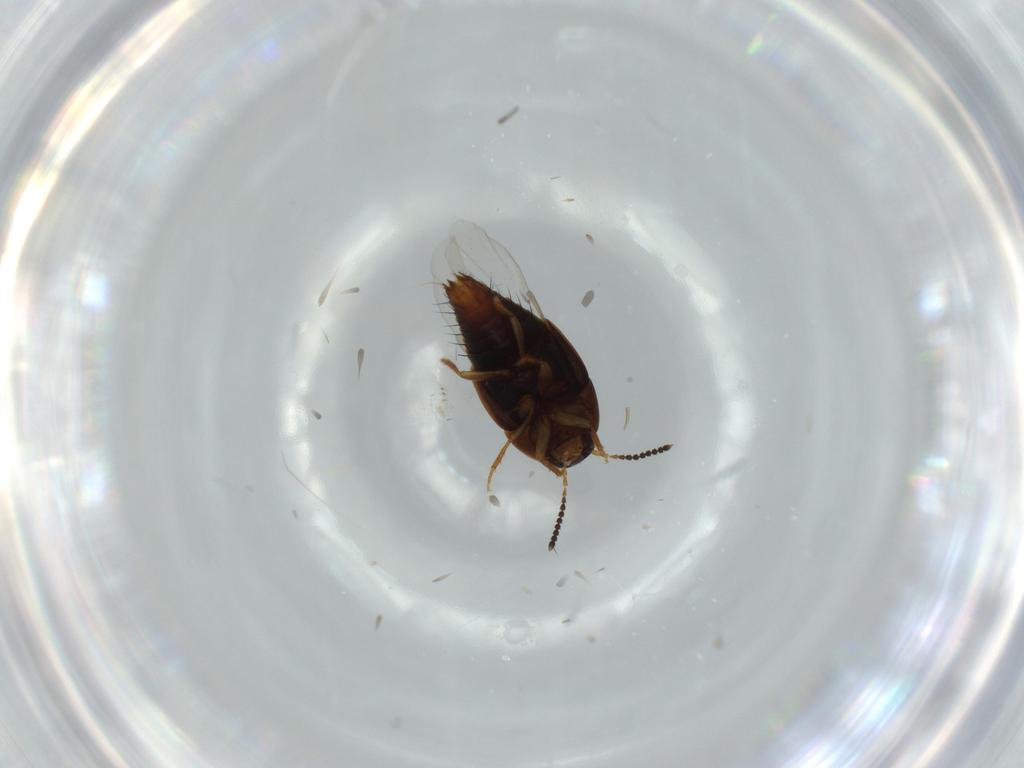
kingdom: Animalia
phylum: Arthropoda
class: Insecta
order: Coleoptera
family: Staphylinidae
